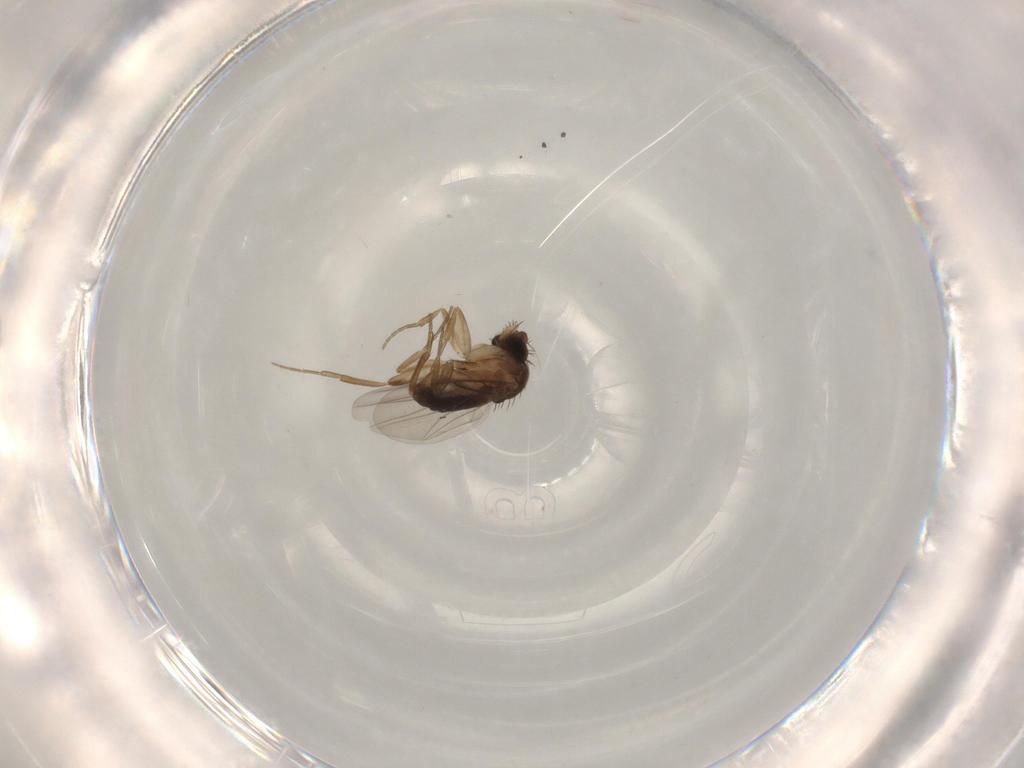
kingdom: Animalia
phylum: Arthropoda
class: Insecta
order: Diptera
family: Phoridae
